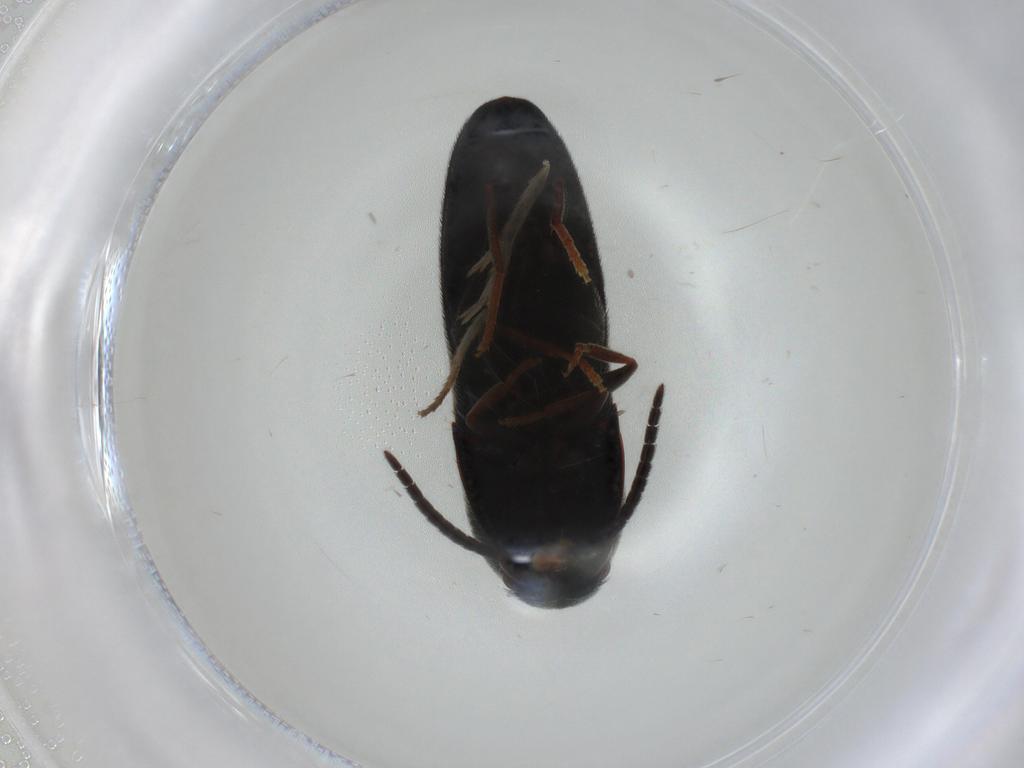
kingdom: Animalia
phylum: Arthropoda
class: Insecta
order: Coleoptera
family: Eucnemidae
